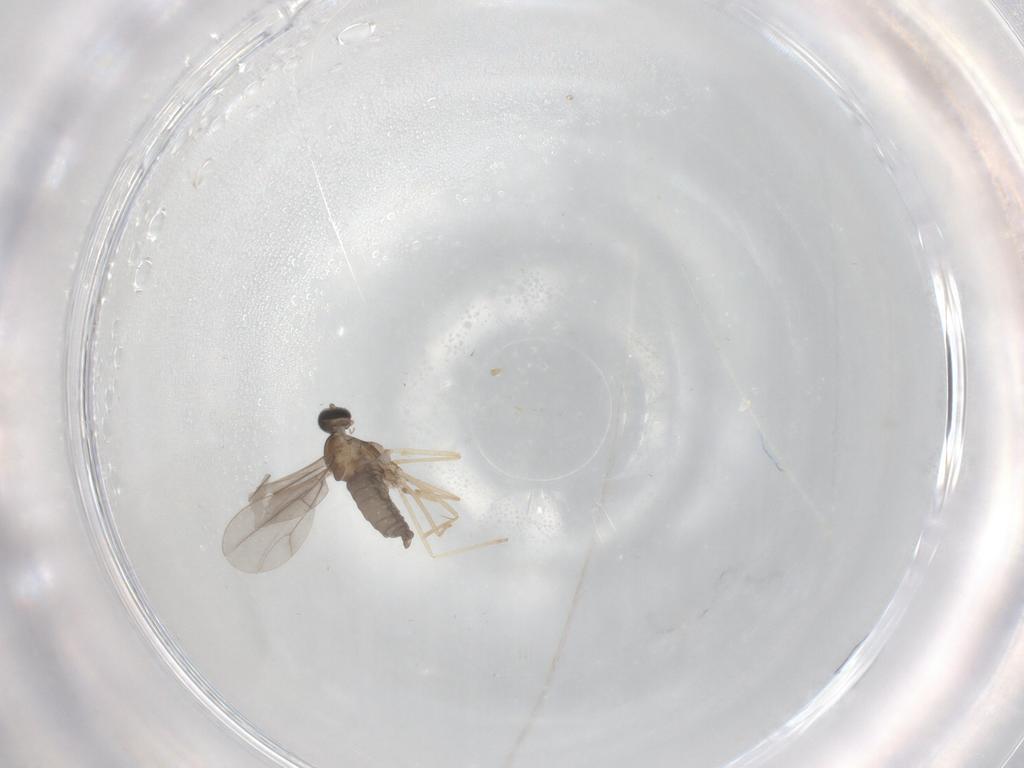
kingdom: Animalia
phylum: Arthropoda
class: Insecta
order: Diptera
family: Cecidomyiidae
